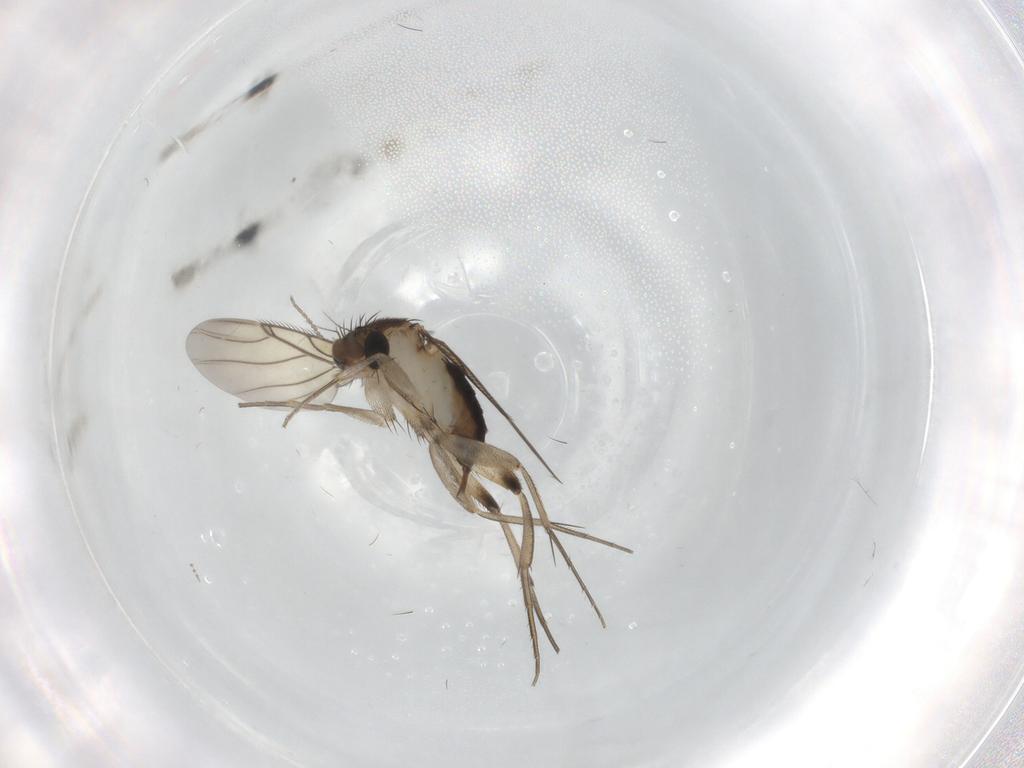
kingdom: Animalia
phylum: Arthropoda
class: Insecta
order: Diptera
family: Phoridae
